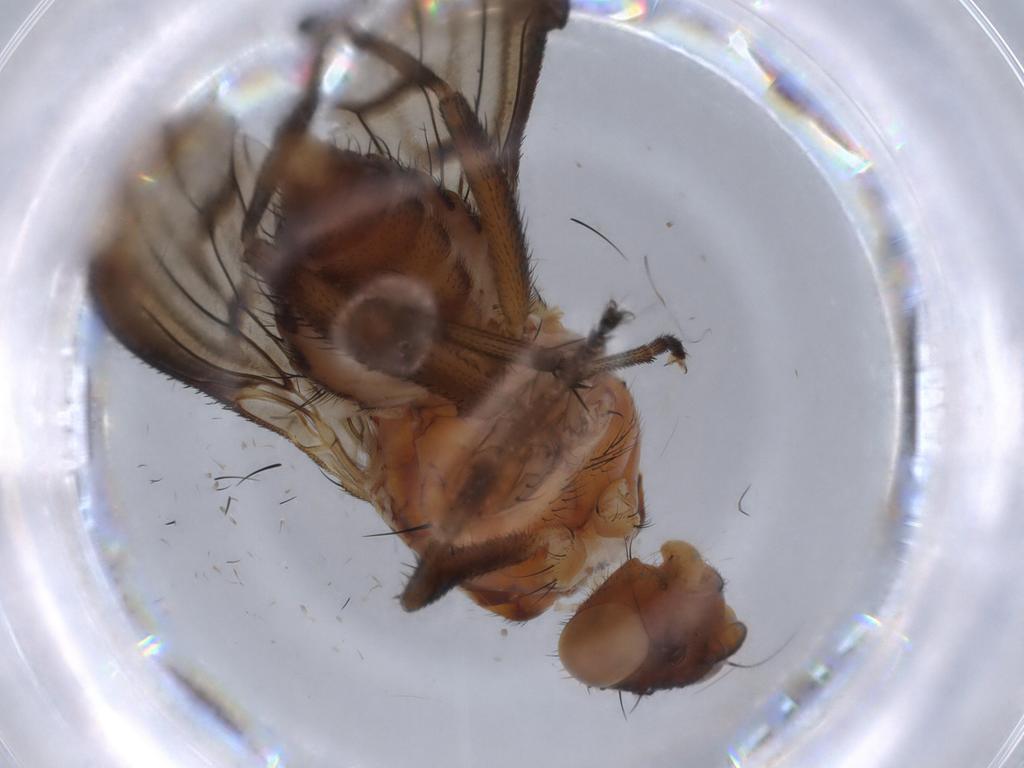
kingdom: Animalia
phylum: Arthropoda
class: Insecta
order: Diptera
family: Heleomyzidae
